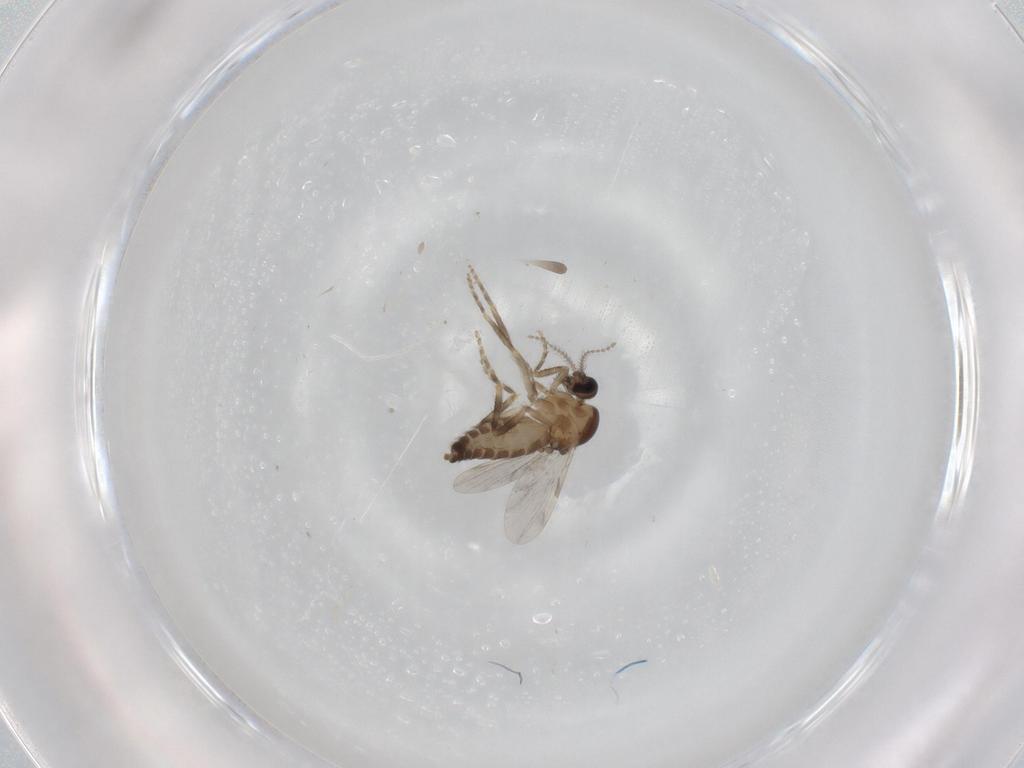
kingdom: Animalia
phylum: Arthropoda
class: Insecta
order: Diptera
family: Ceratopogonidae
